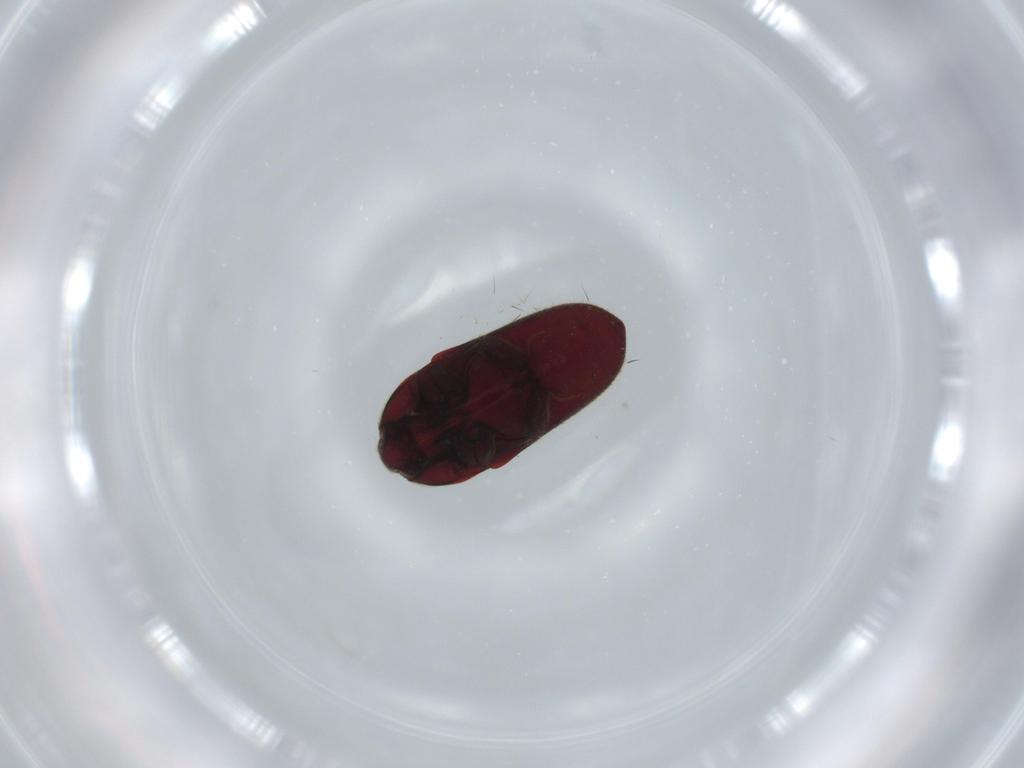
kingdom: Animalia
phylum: Arthropoda
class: Insecta
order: Coleoptera
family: Throscidae
